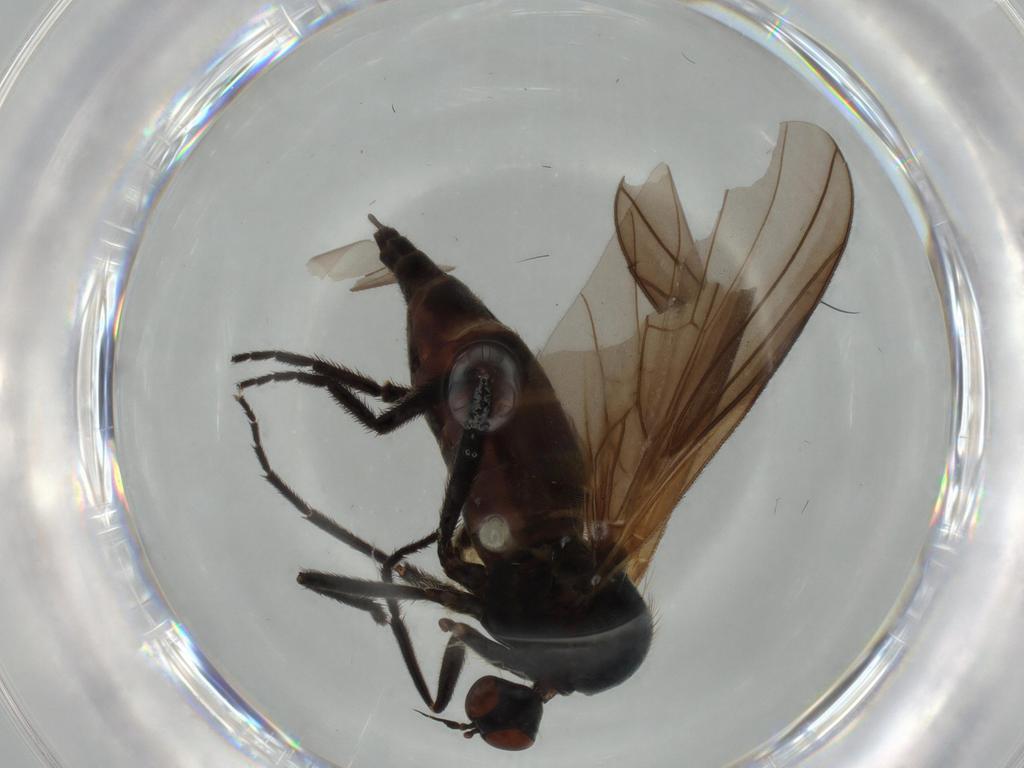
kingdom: Animalia
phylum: Arthropoda
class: Insecta
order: Diptera
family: Empididae
